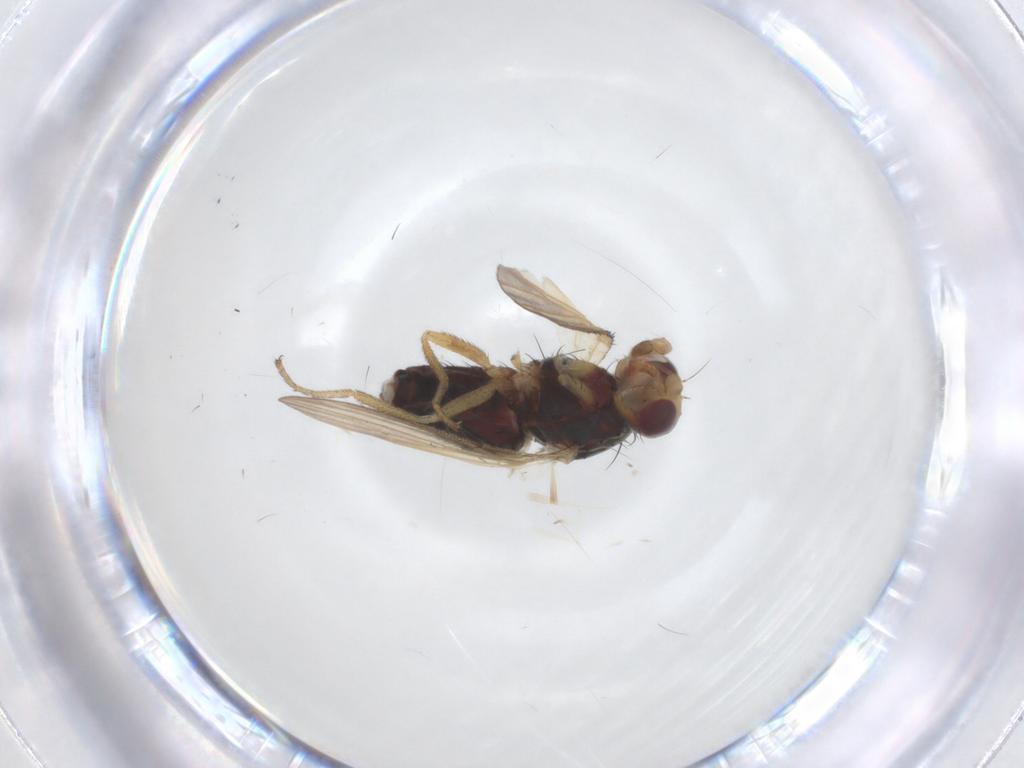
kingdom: Animalia
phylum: Arthropoda
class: Insecta
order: Diptera
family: Heleomyzidae
